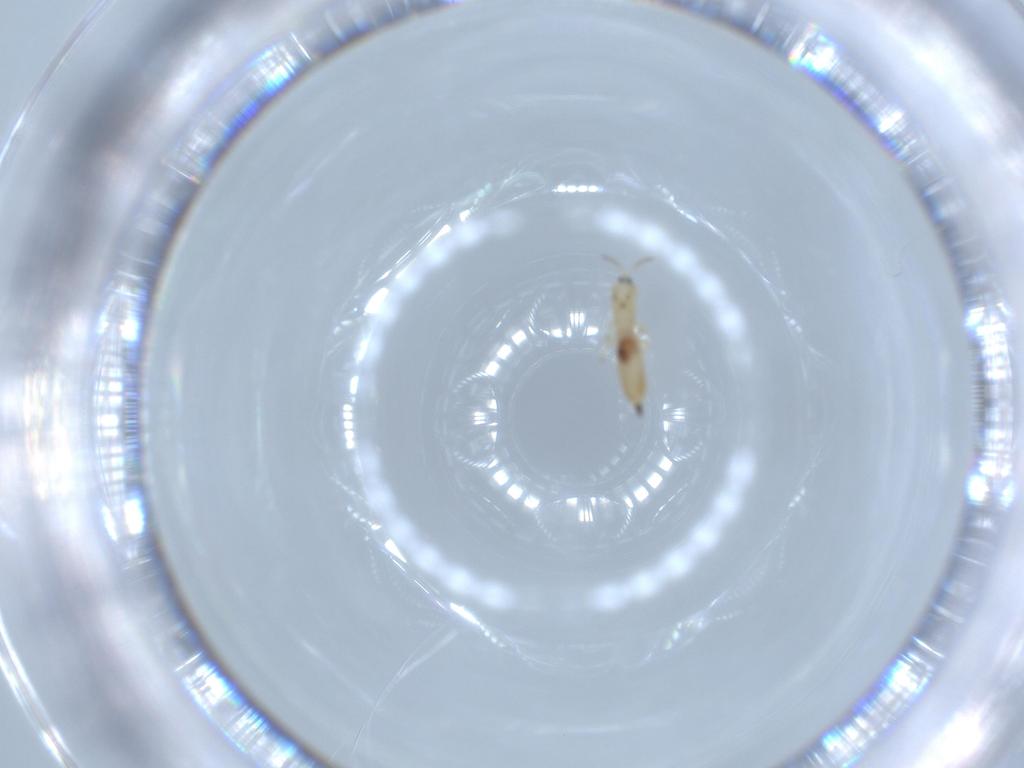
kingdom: Animalia
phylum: Arthropoda
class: Insecta
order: Thysanoptera
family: Phlaeothripidae
